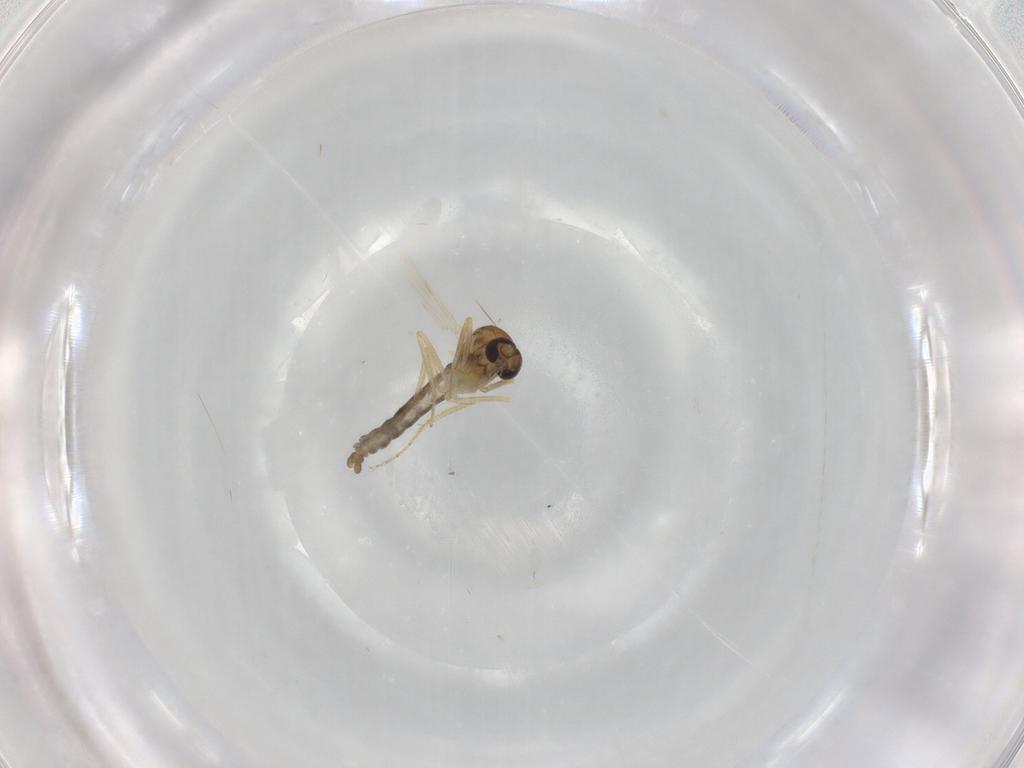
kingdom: Animalia
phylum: Arthropoda
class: Insecta
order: Diptera
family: Ceratopogonidae
